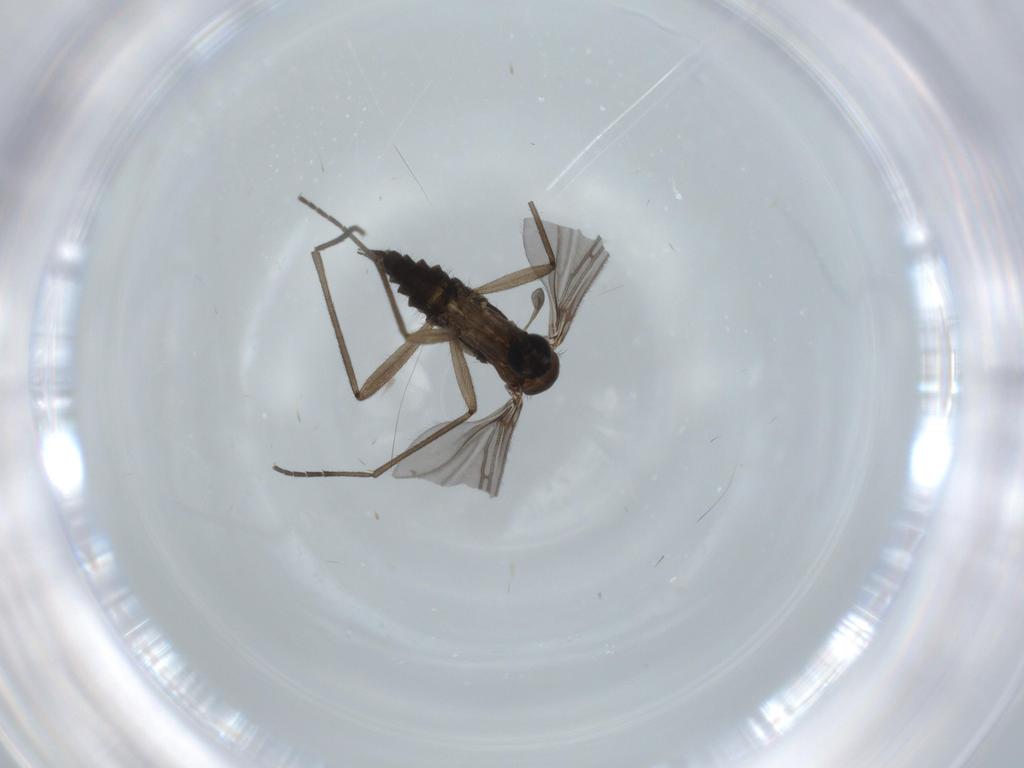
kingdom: Animalia
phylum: Arthropoda
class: Insecta
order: Diptera
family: Sciaridae
